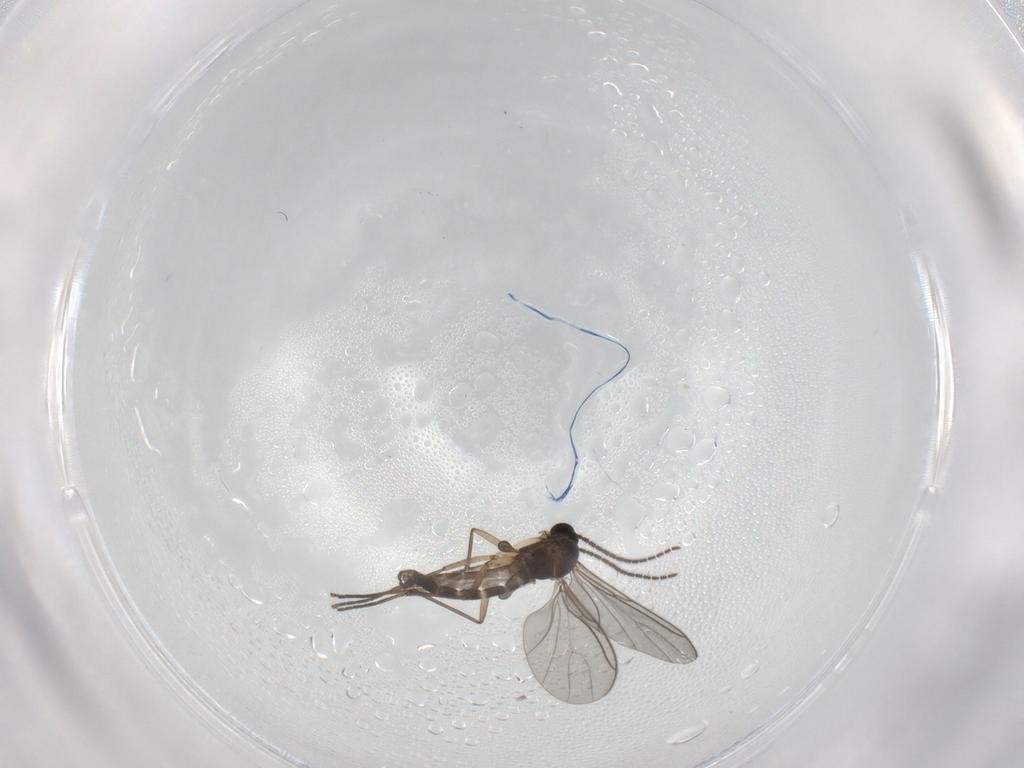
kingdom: Animalia
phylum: Arthropoda
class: Insecta
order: Diptera
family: Sciaridae
